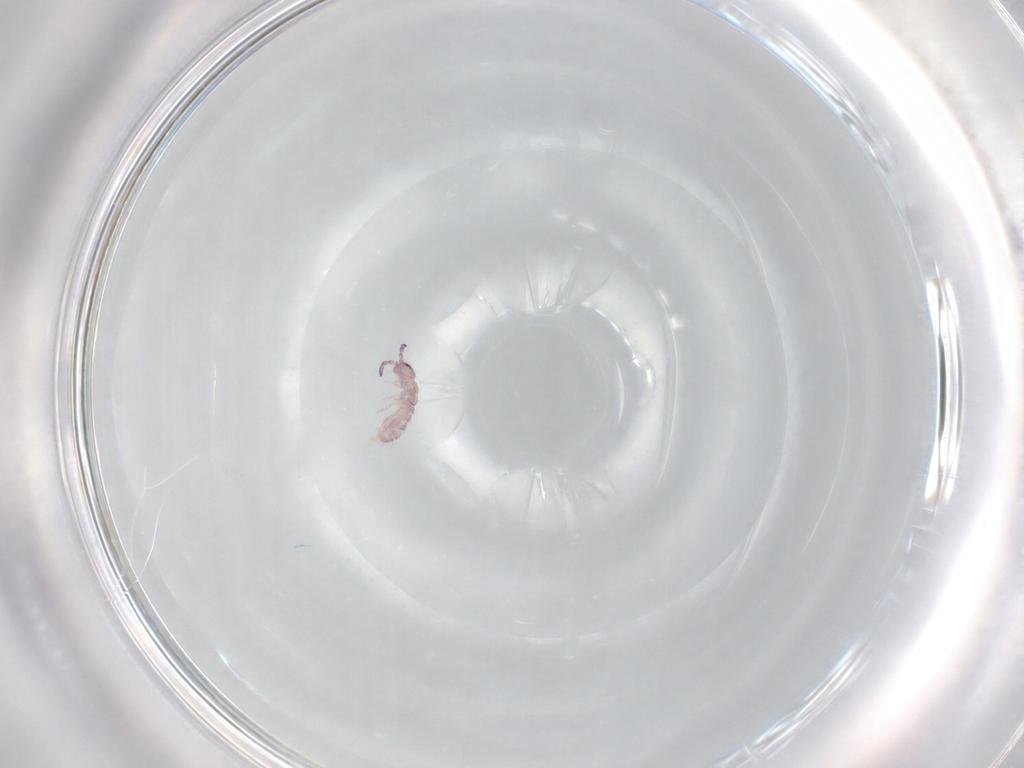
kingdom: Animalia
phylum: Arthropoda
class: Collembola
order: Entomobryomorpha
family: Isotomidae
